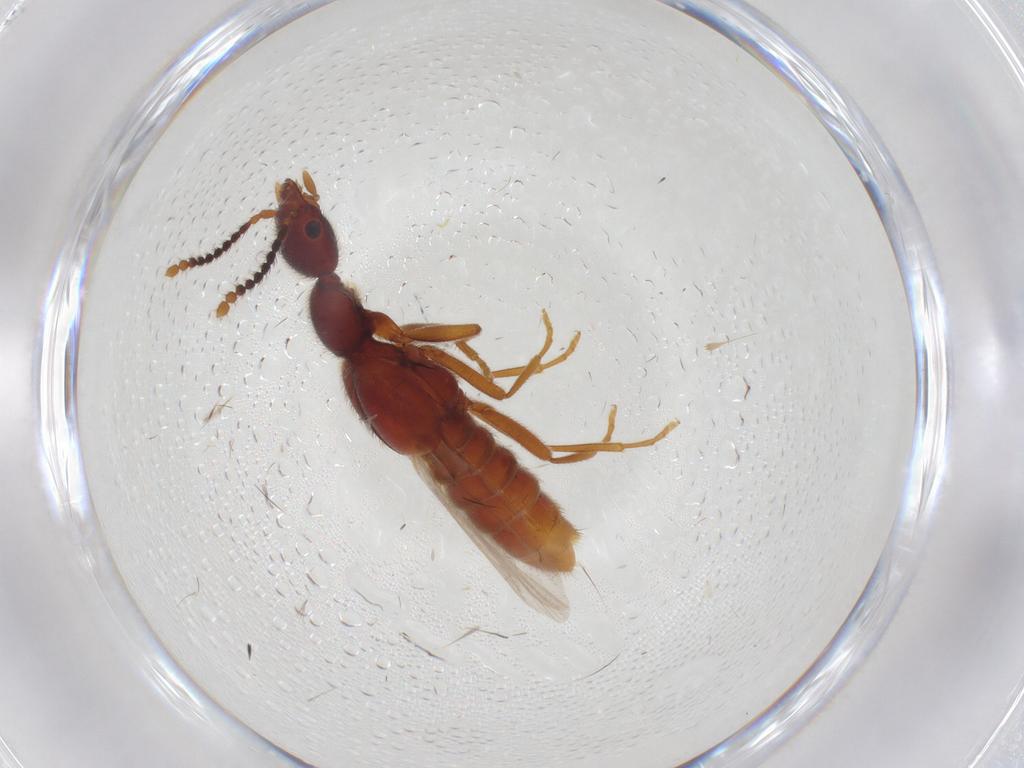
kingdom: Animalia
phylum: Arthropoda
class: Insecta
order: Coleoptera
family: Staphylinidae
